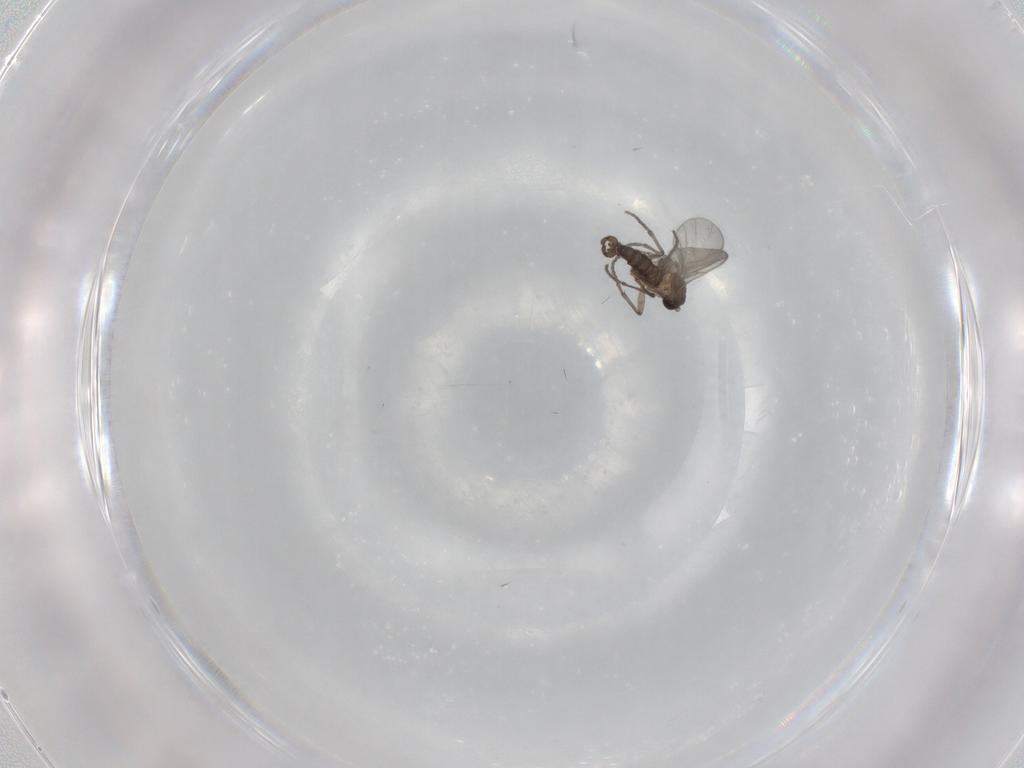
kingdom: Animalia
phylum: Arthropoda
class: Insecta
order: Diptera
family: Sciaridae
